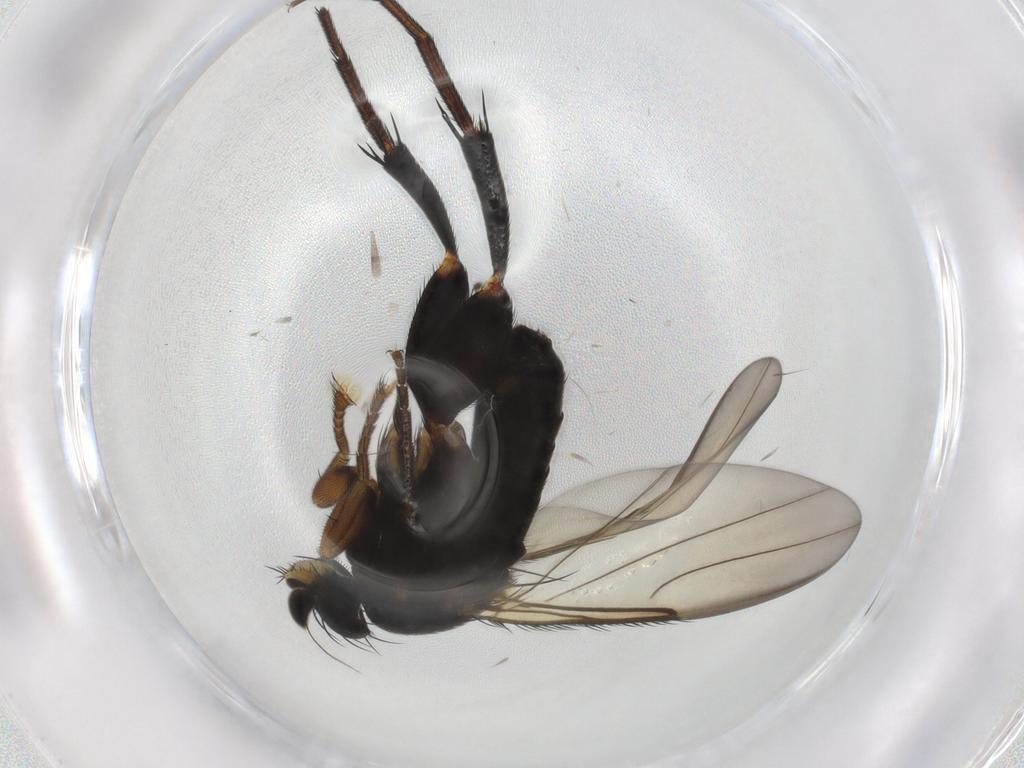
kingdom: Animalia
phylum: Arthropoda
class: Insecta
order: Diptera
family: Phoridae
